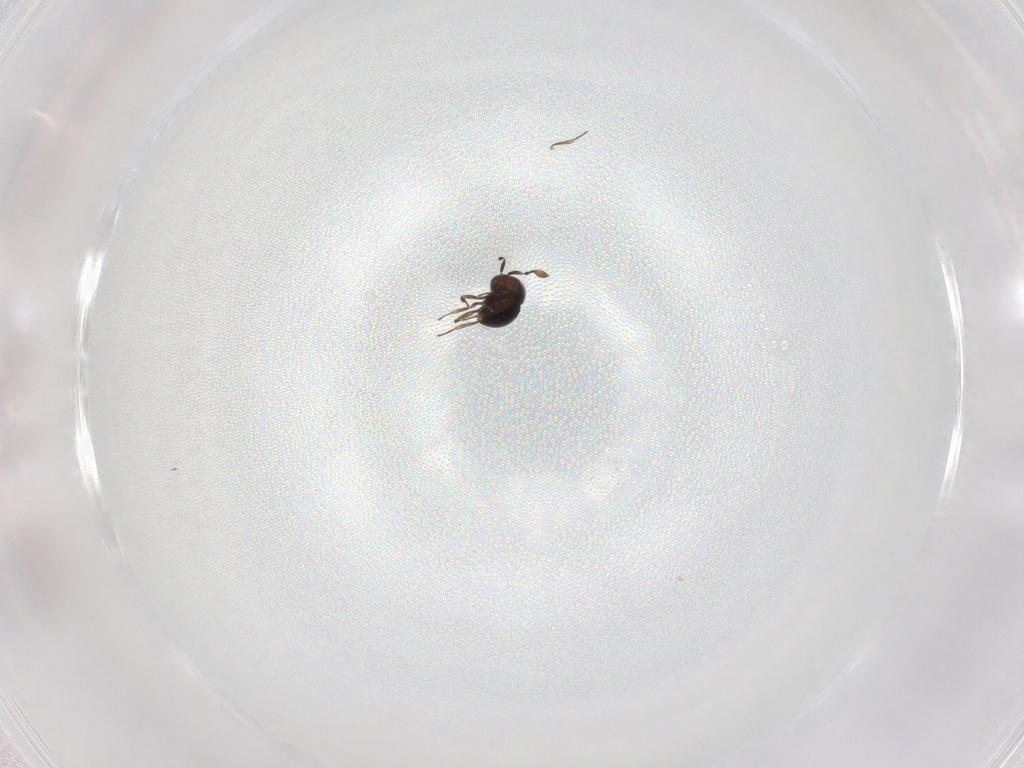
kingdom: Animalia
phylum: Arthropoda
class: Insecta
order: Hymenoptera
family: Scelionidae
